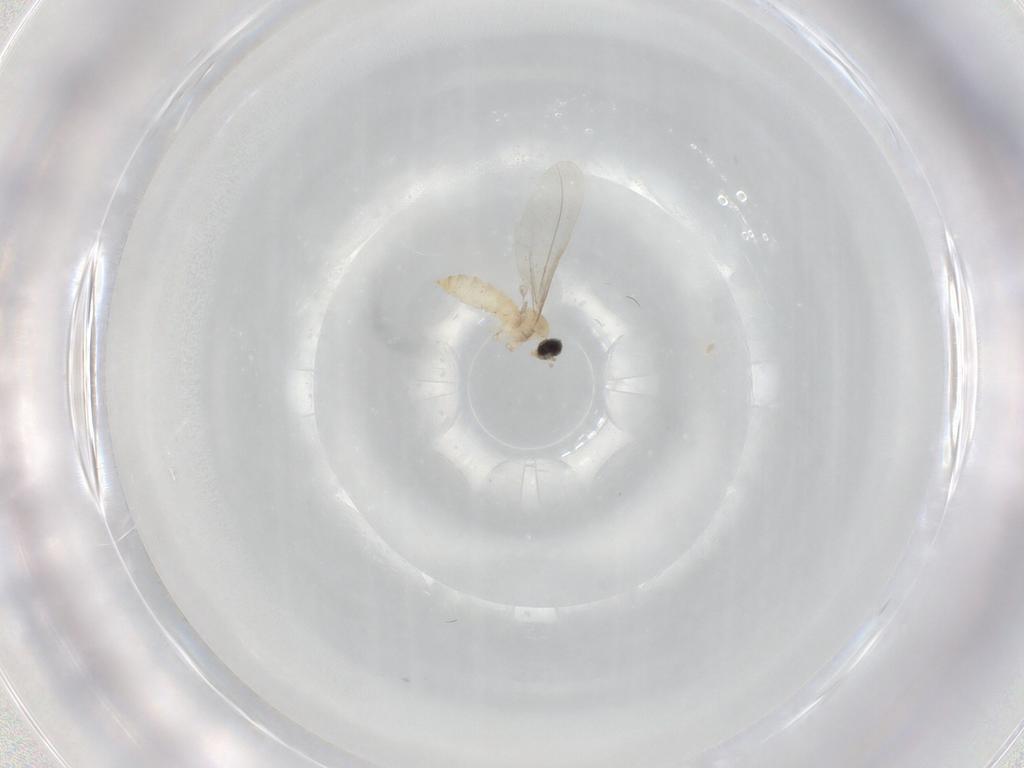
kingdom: Animalia
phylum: Arthropoda
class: Insecta
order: Diptera
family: Cecidomyiidae
